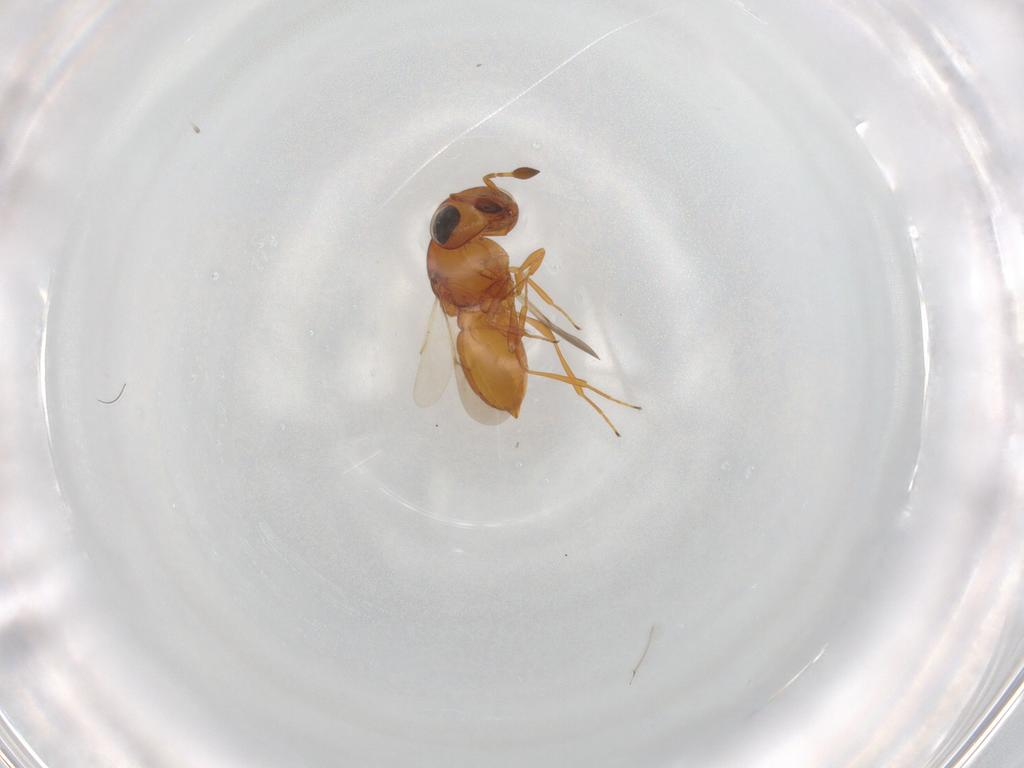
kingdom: Animalia
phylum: Arthropoda
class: Insecta
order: Hymenoptera
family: Scelionidae
